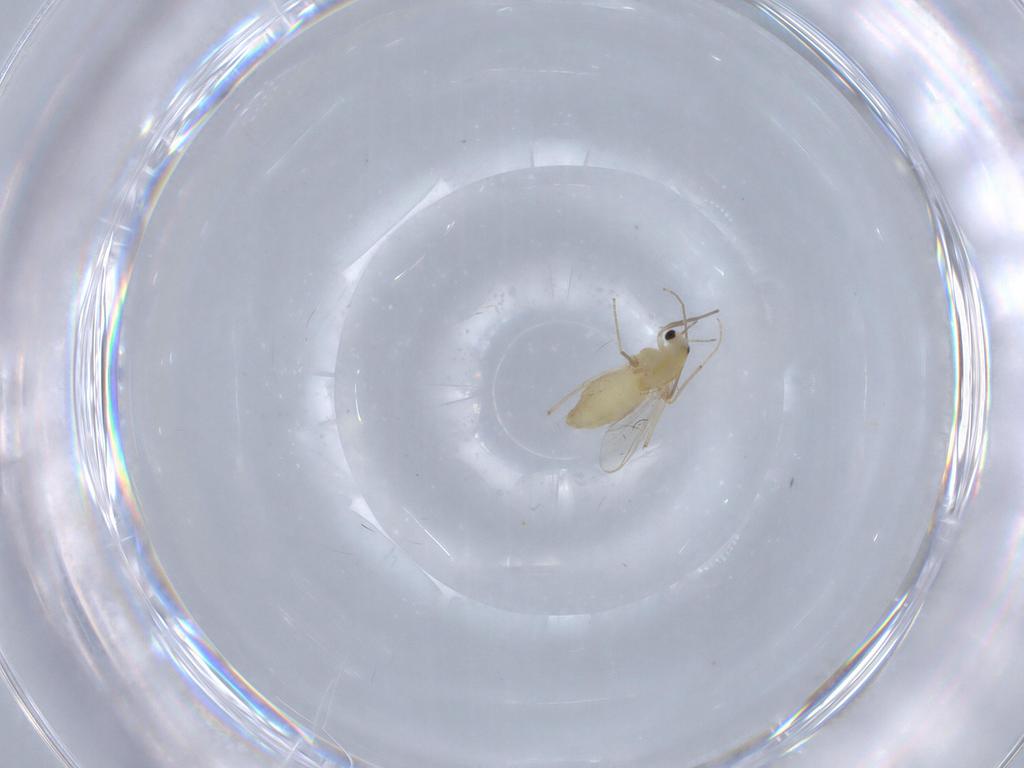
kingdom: Animalia
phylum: Arthropoda
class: Insecta
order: Diptera
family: Chironomidae
